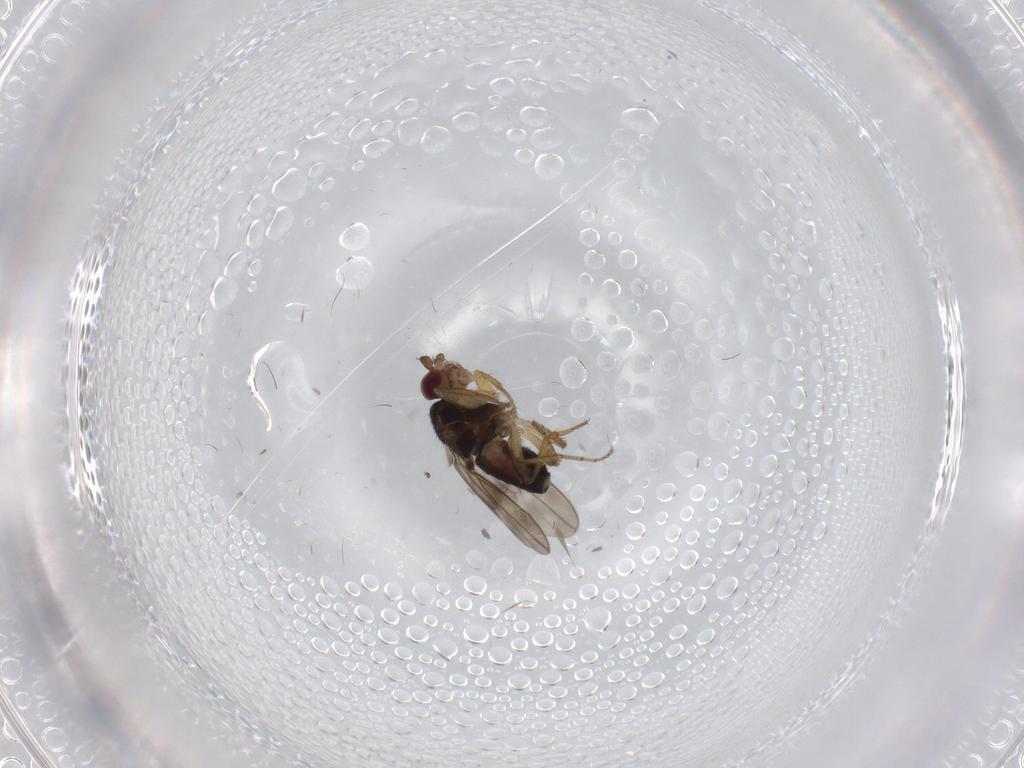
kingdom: Animalia
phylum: Arthropoda
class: Insecta
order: Diptera
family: Sphaeroceridae
